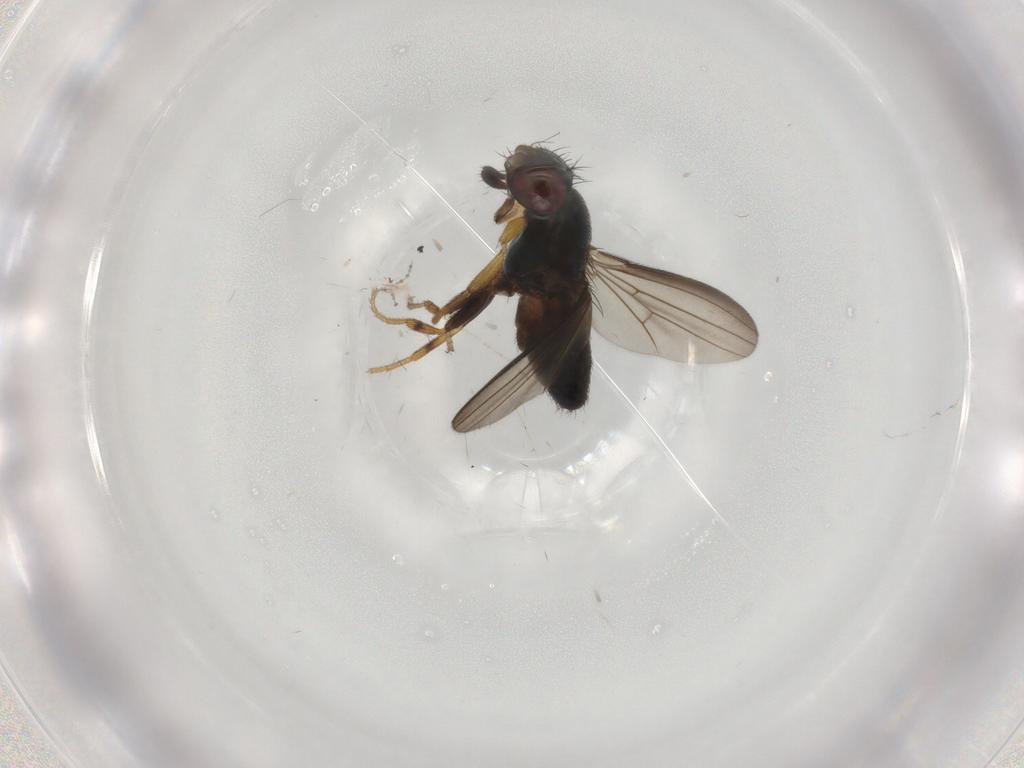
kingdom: Animalia
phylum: Arthropoda
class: Insecta
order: Diptera
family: Milichiidae
